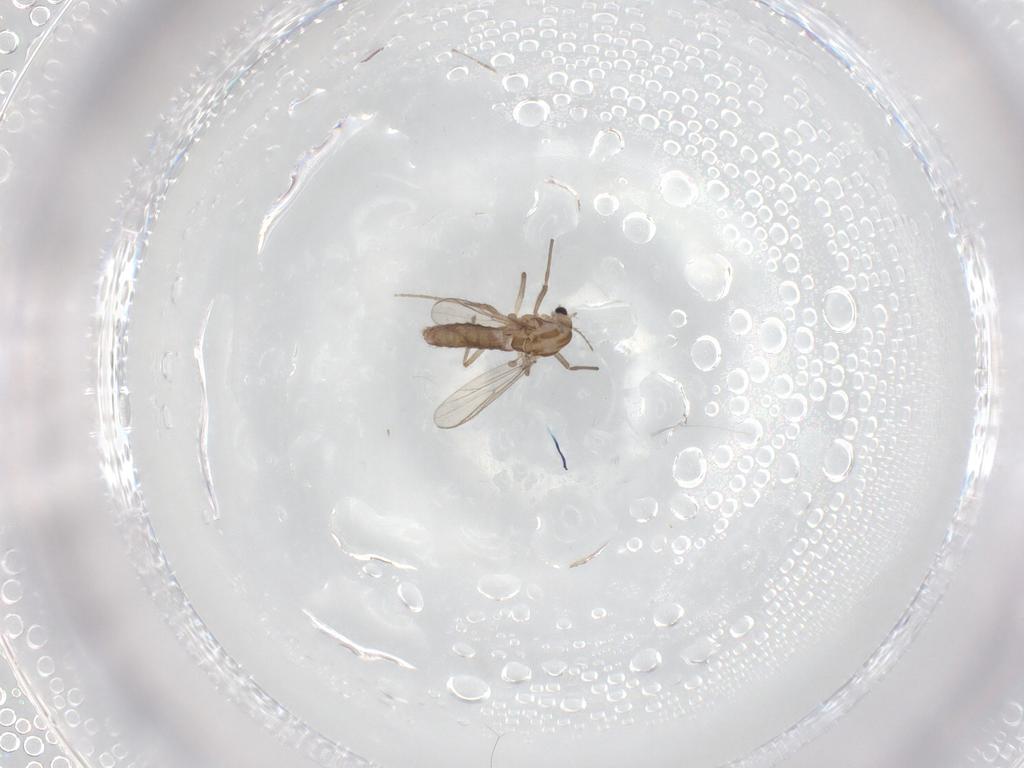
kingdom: Animalia
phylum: Arthropoda
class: Insecta
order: Diptera
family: Chironomidae
